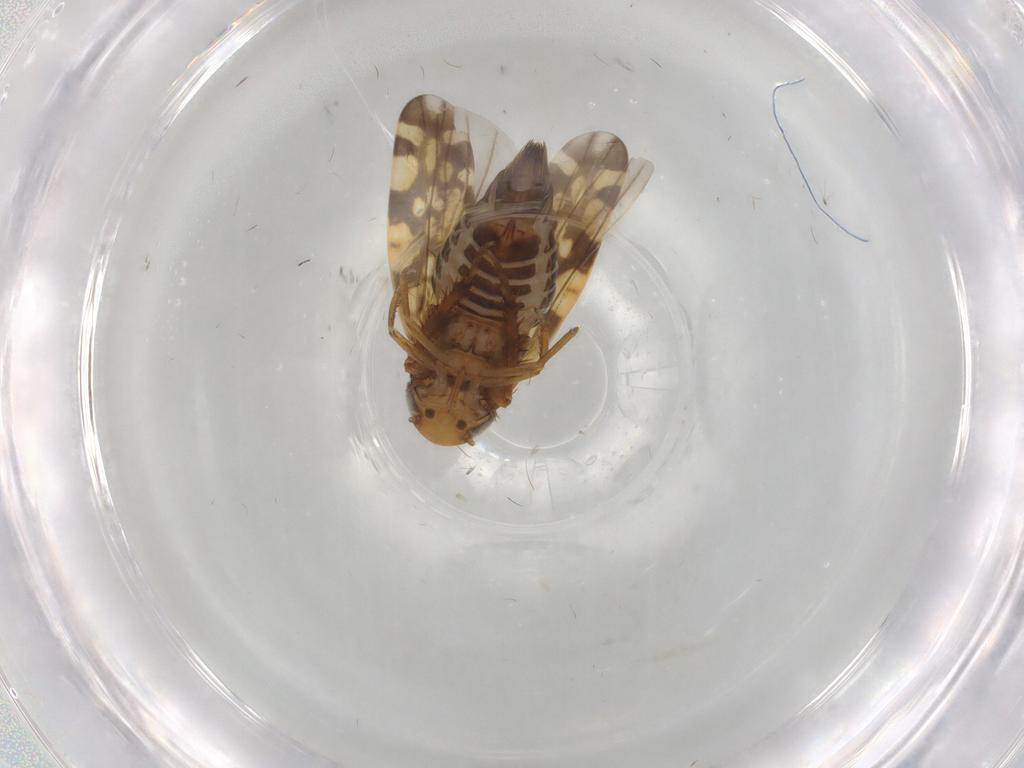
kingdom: Animalia
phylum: Arthropoda
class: Insecta
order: Hemiptera
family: Cicadellidae
